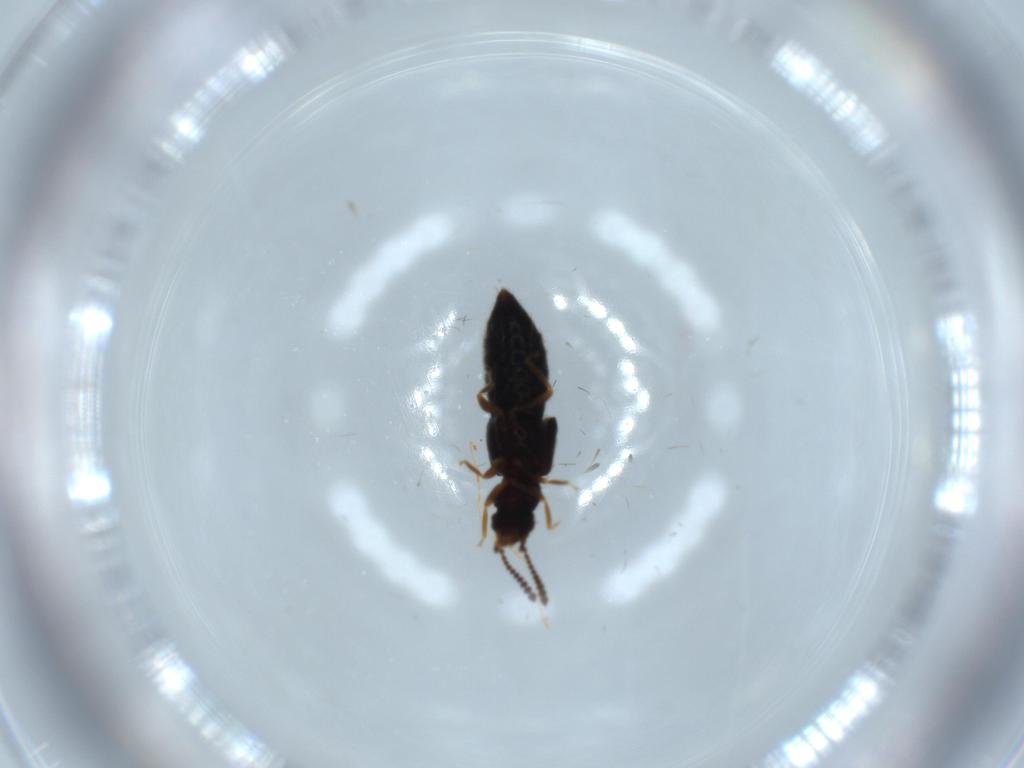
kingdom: Animalia
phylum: Arthropoda
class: Insecta
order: Coleoptera
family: Staphylinidae
